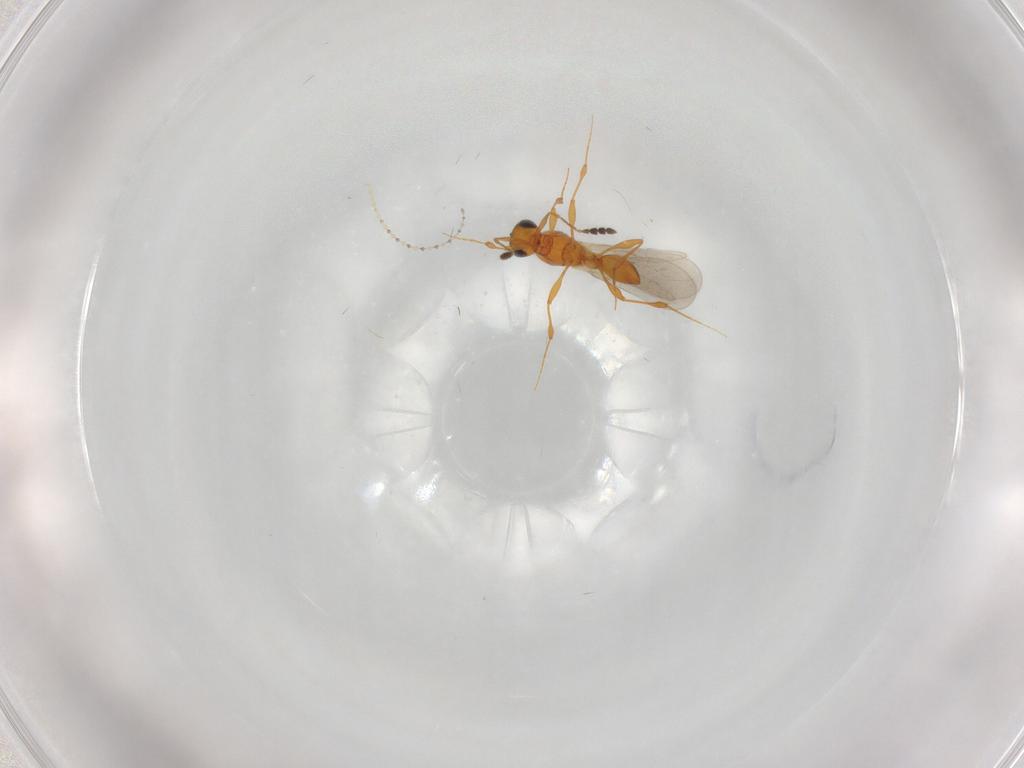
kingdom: Animalia
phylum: Arthropoda
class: Insecta
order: Hymenoptera
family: Platygastridae
